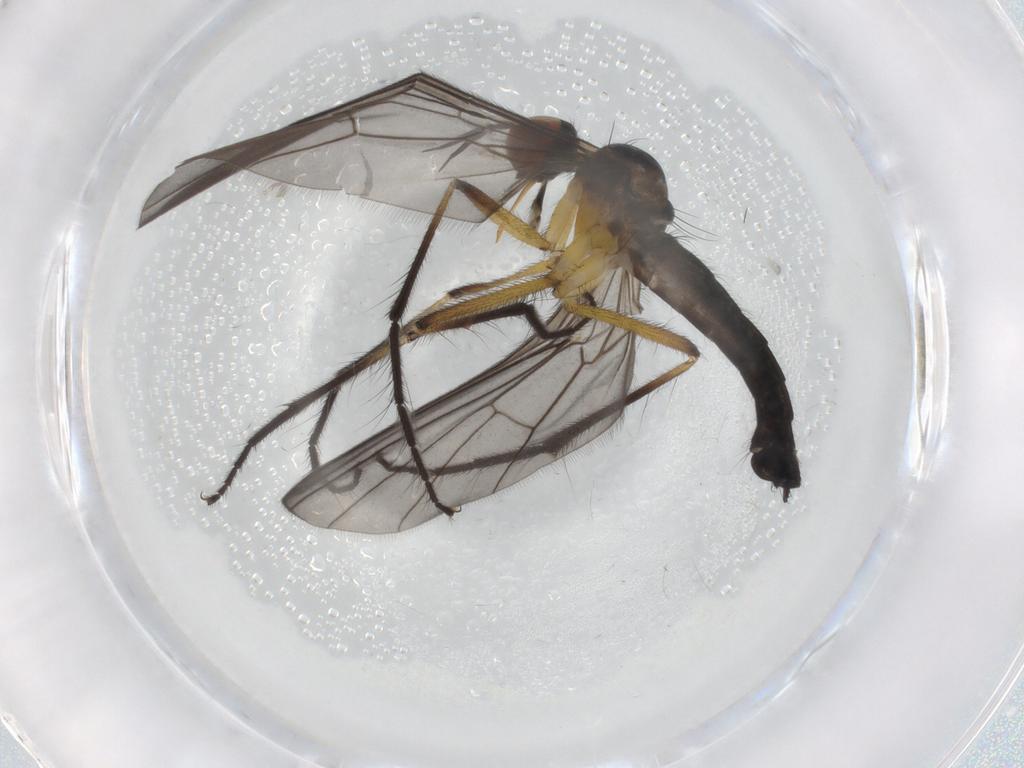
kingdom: Animalia
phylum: Arthropoda
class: Insecta
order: Diptera
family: Empididae
